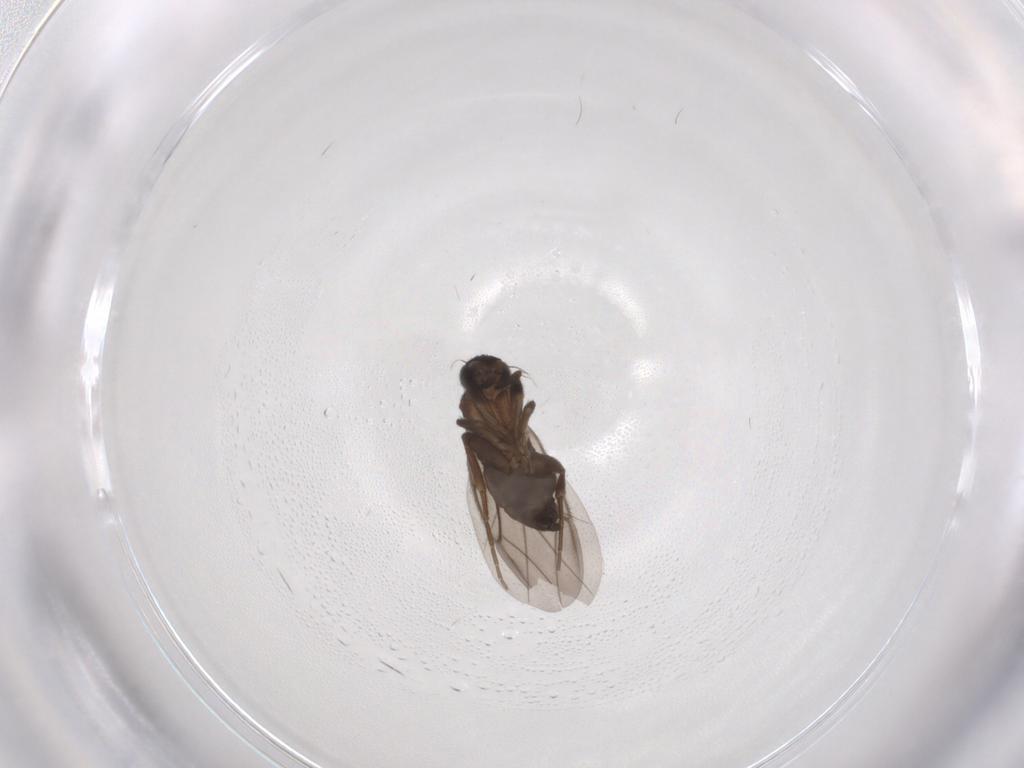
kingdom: Animalia
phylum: Arthropoda
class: Insecta
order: Diptera
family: Phoridae
